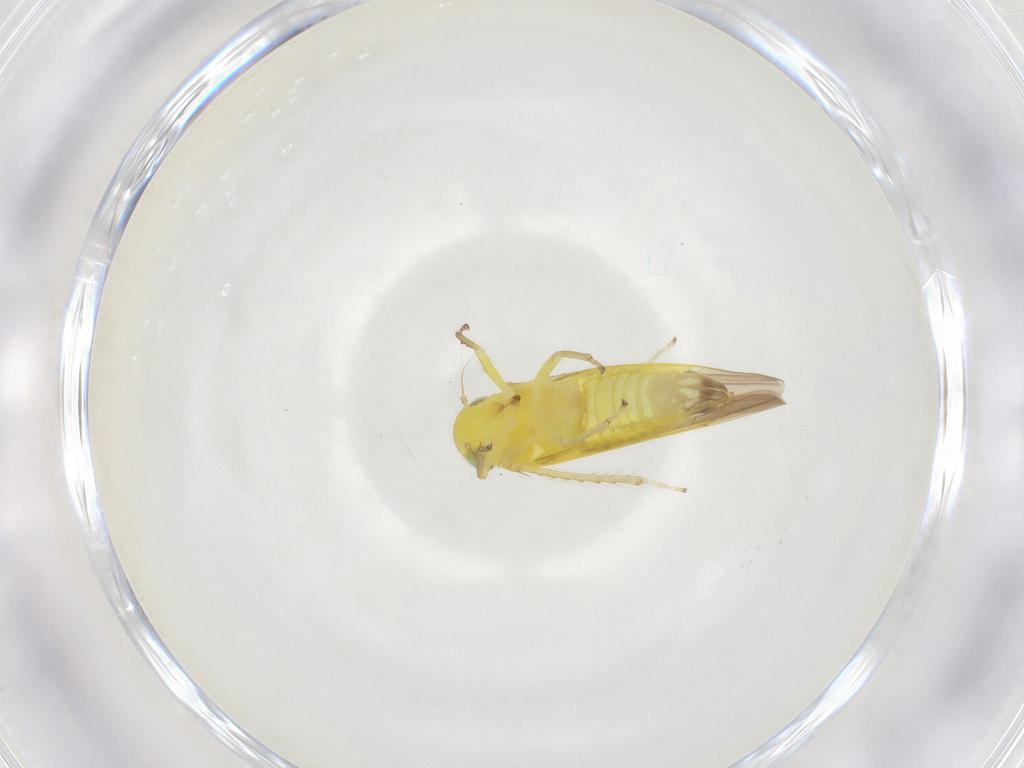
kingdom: Animalia
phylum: Arthropoda
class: Insecta
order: Hemiptera
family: Cicadellidae
